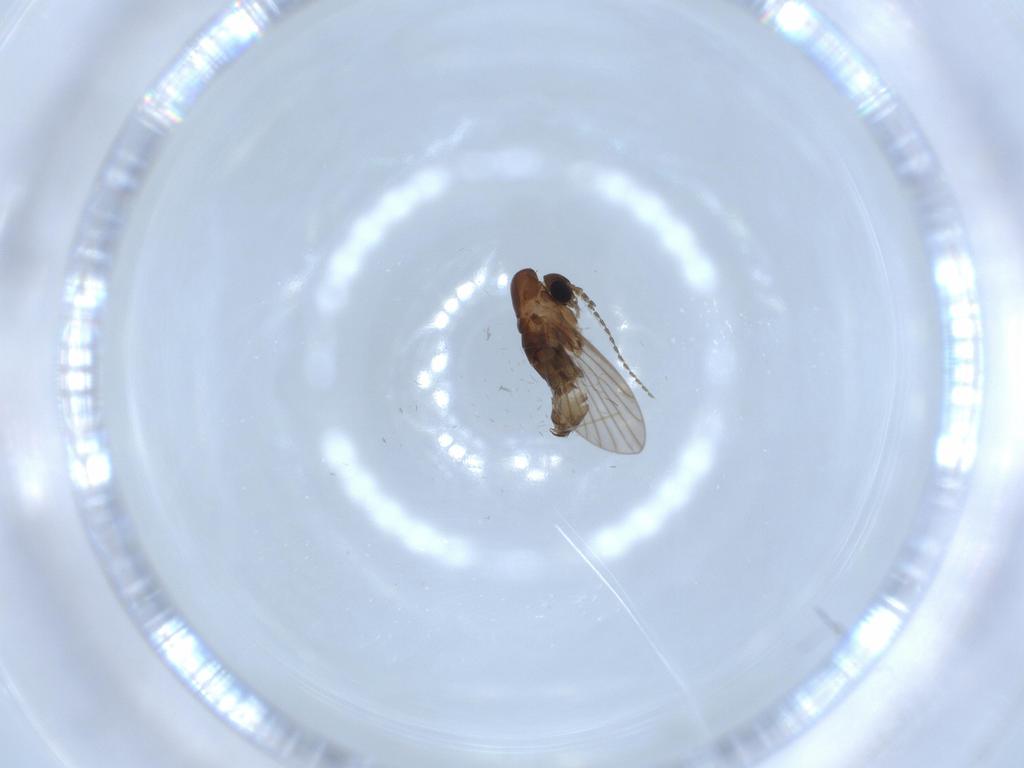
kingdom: Animalia
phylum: Arthropoda
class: Insecta
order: Diptera
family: Psychodidae
